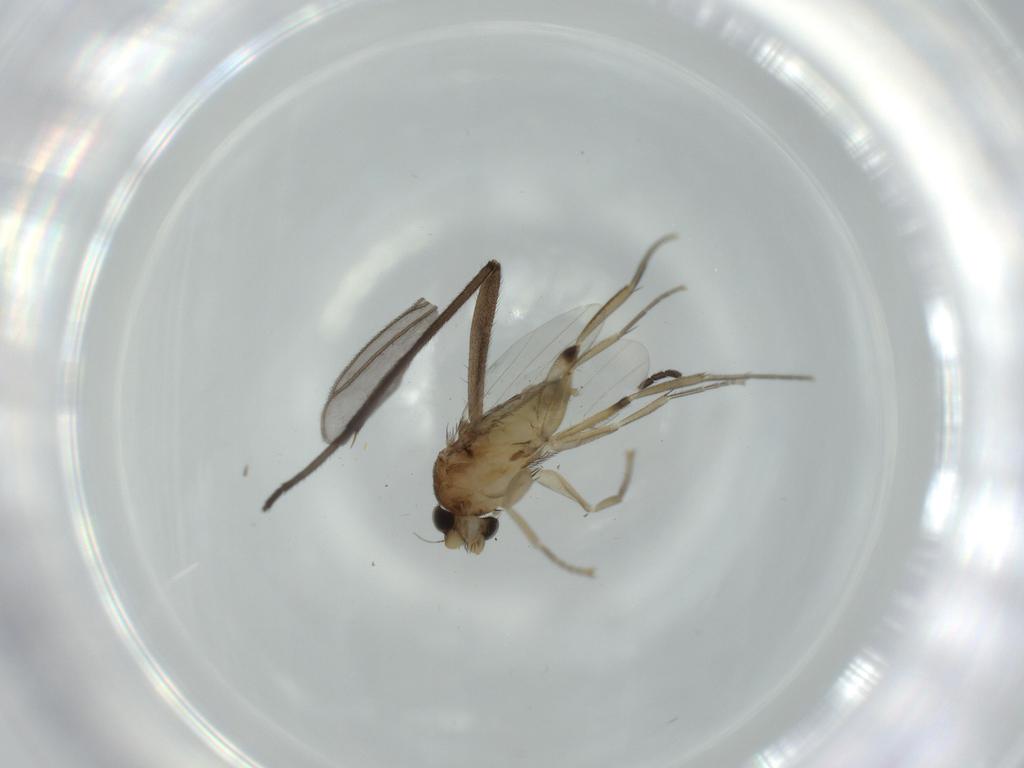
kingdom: Animalia
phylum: Arthropoda
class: Insecta
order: Diptera
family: Phoridae
